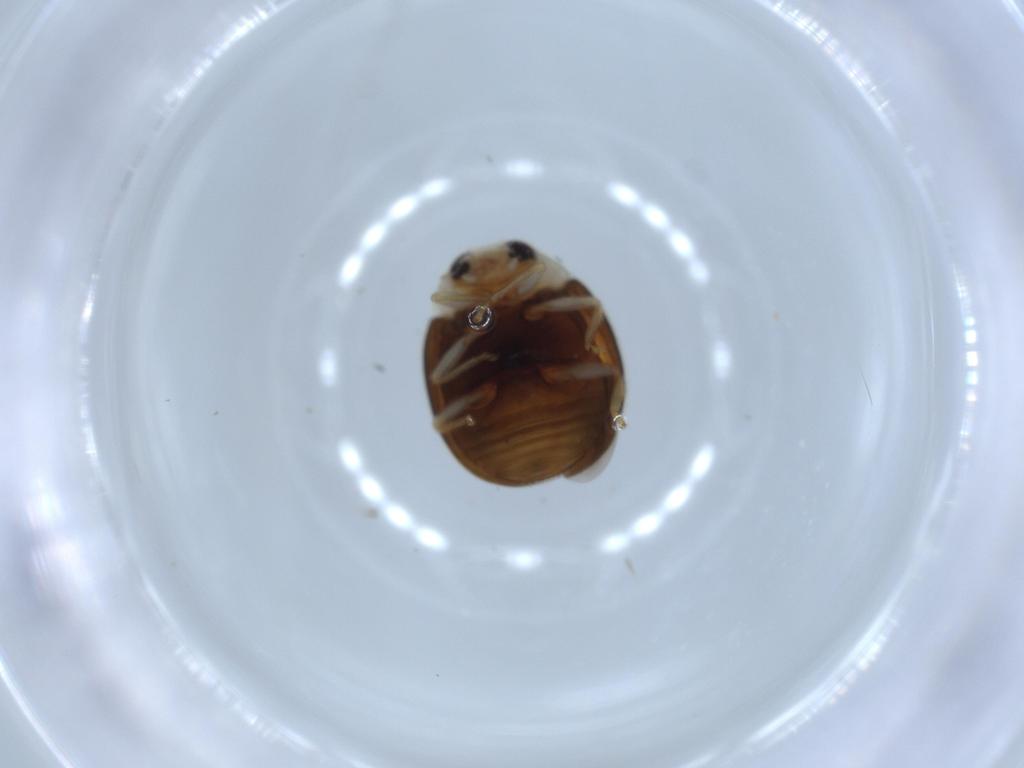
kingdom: Animalia
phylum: Arthropoda
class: Insecta
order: Coleoptera
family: Coccinellidae
